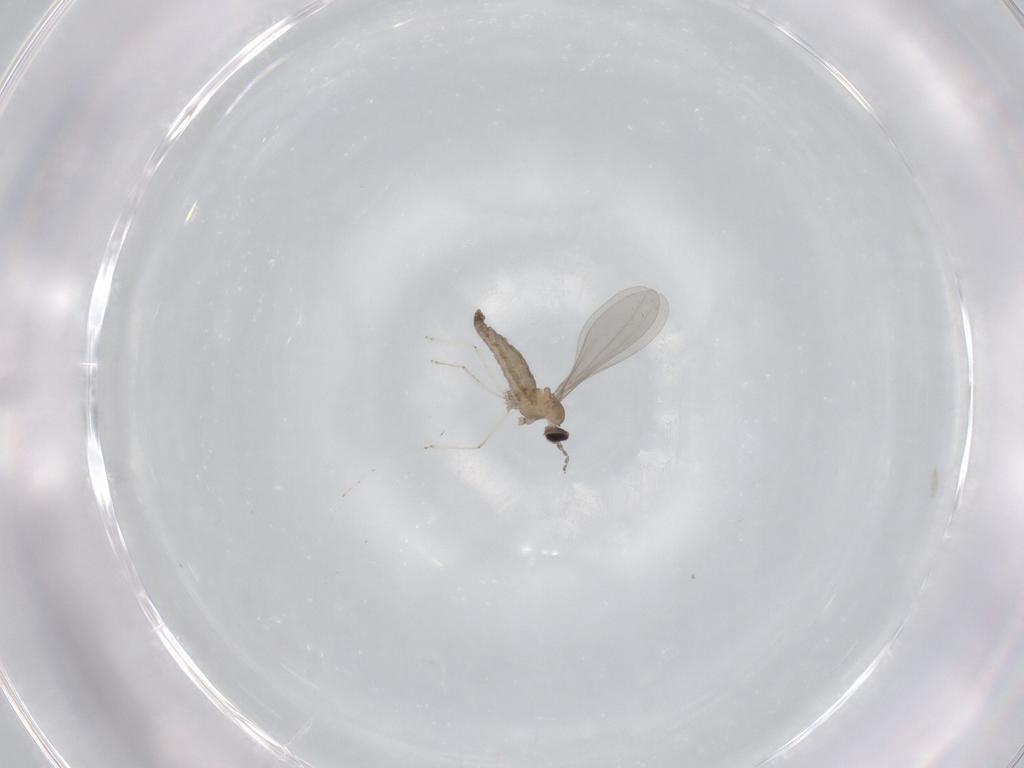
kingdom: Animalia
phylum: Arthropoda
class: Insecta
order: Diptera
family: Cecidomyiidae
